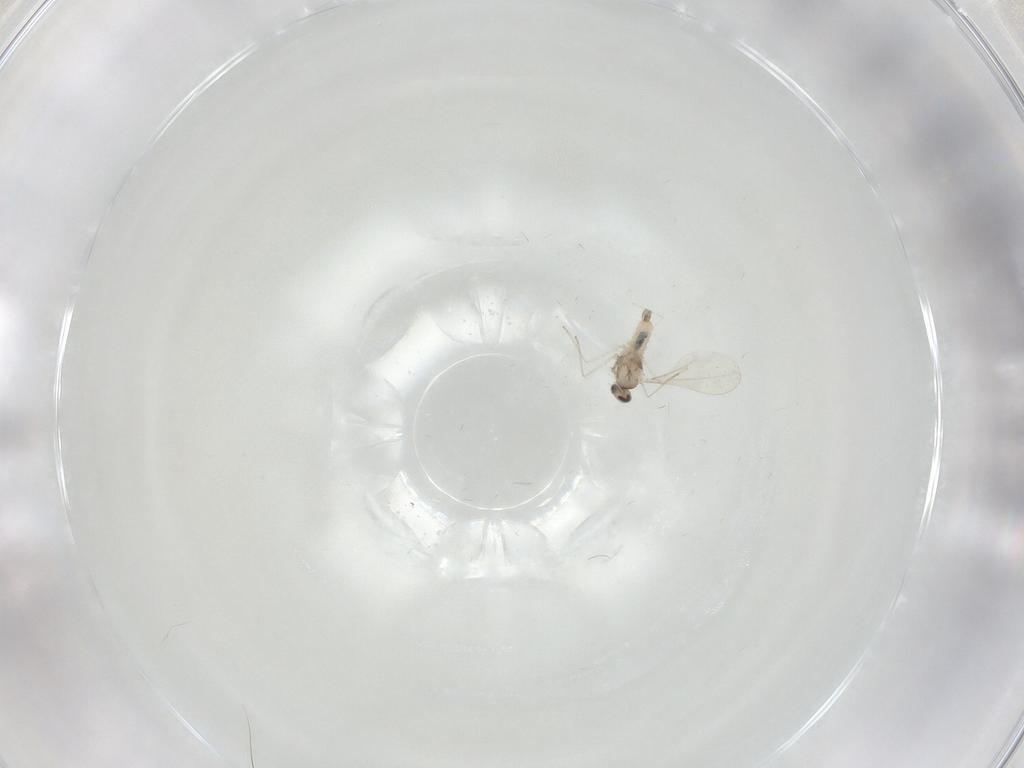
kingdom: Animalia
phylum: Arthropoda
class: Insecta
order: Diptera
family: Cecidomyiidae
